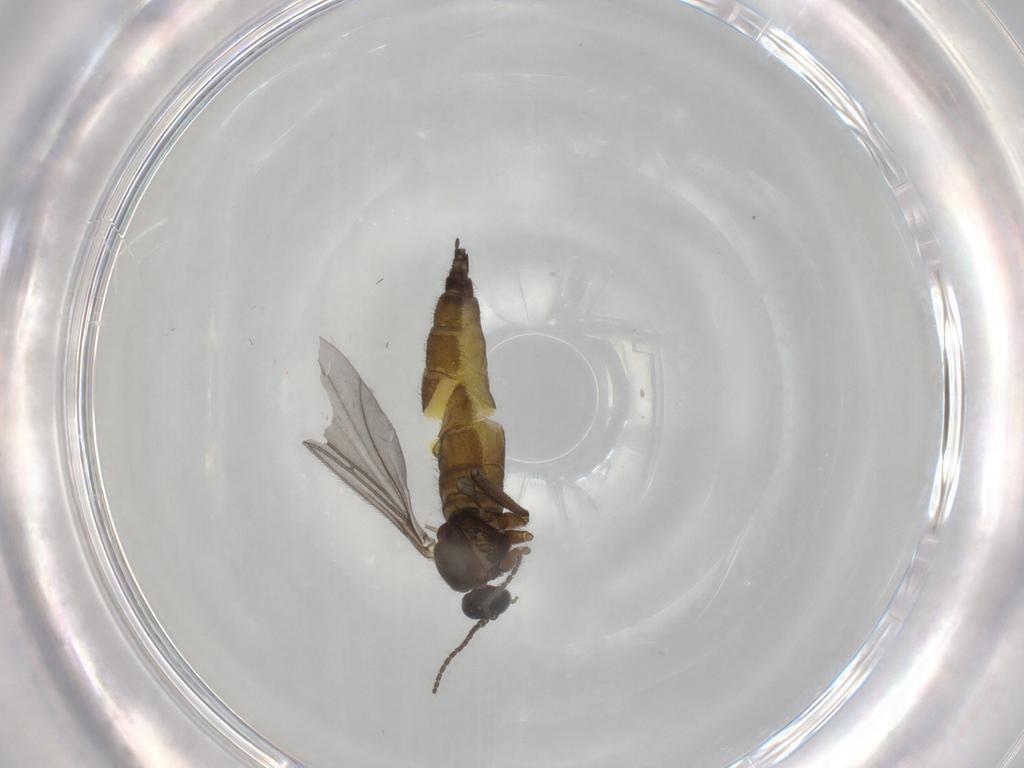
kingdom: Animalia
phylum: Arthropoda
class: Insecta
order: Diptera
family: Sciaridae
